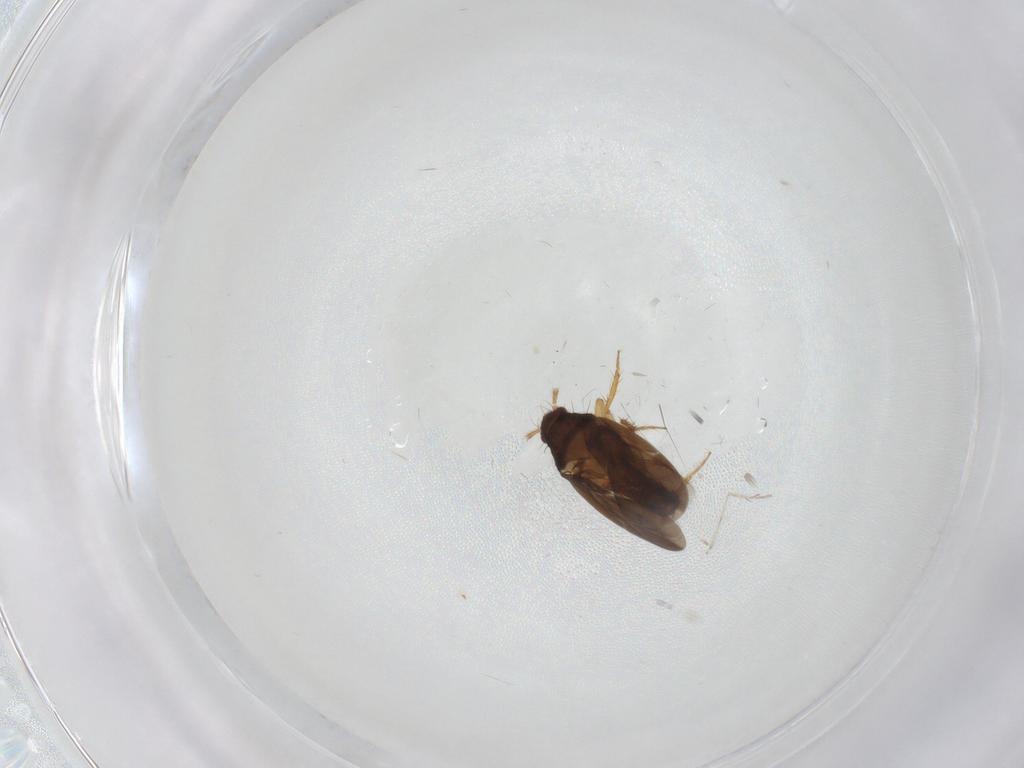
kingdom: Animalia
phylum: Arthropoda
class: Insecta
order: Hemiptera
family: Ceratocombidae
